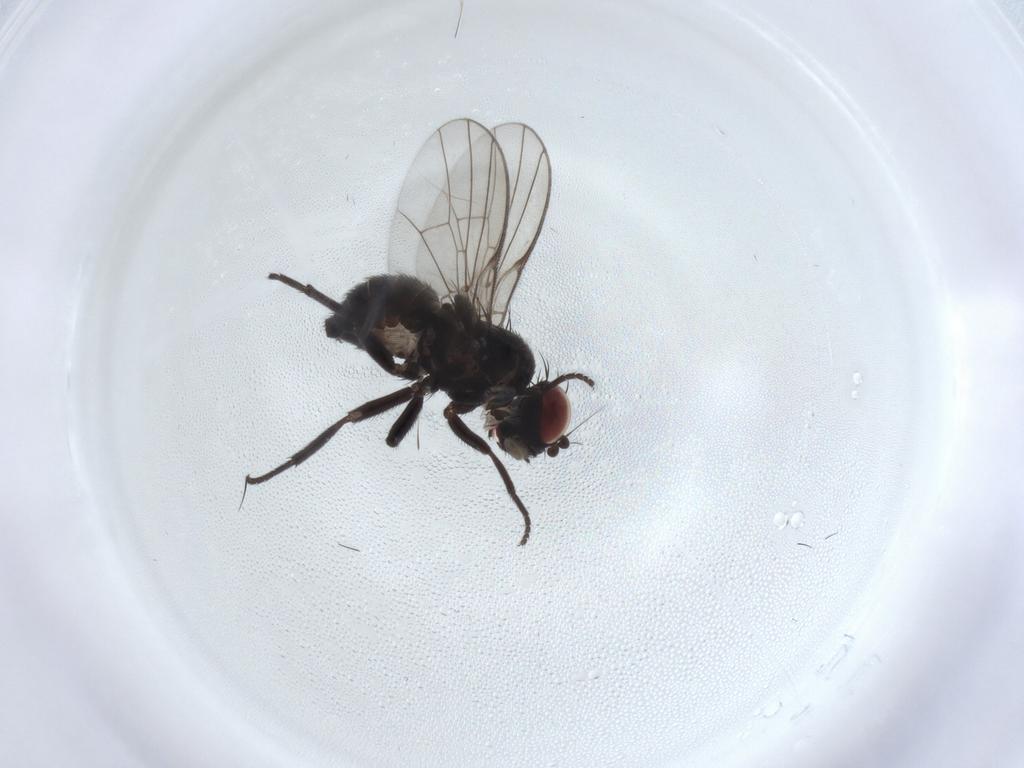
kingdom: Animalia
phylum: Arthropoda
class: Insecta
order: Diptera
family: Agromyzidae
